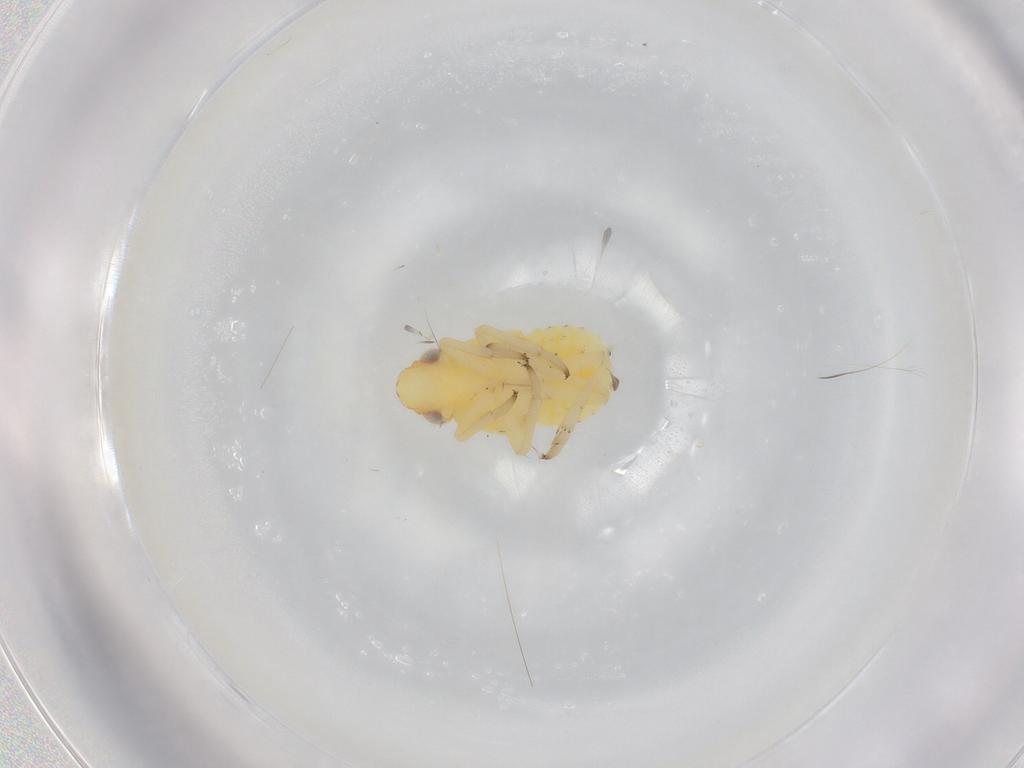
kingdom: Animalia
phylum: Arthropoda
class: Insecta
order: Hemiptera
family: Caliscelidae
